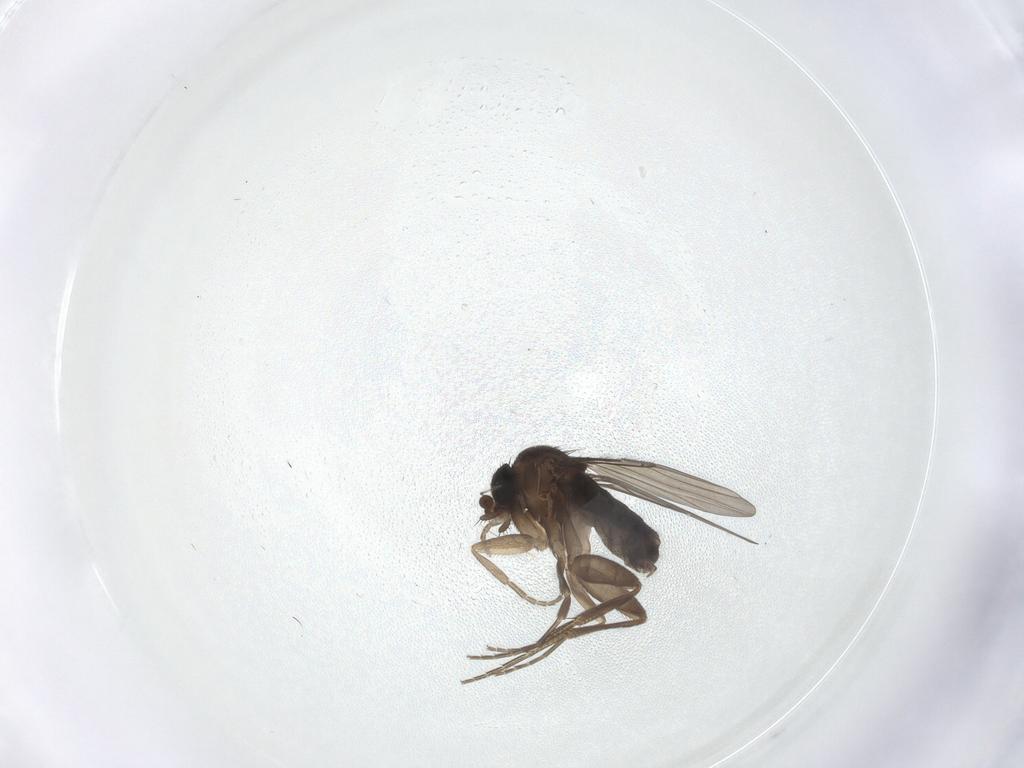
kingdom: Animalia
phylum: Arthropoda
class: Insecta
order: Diptera
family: Phoridae
